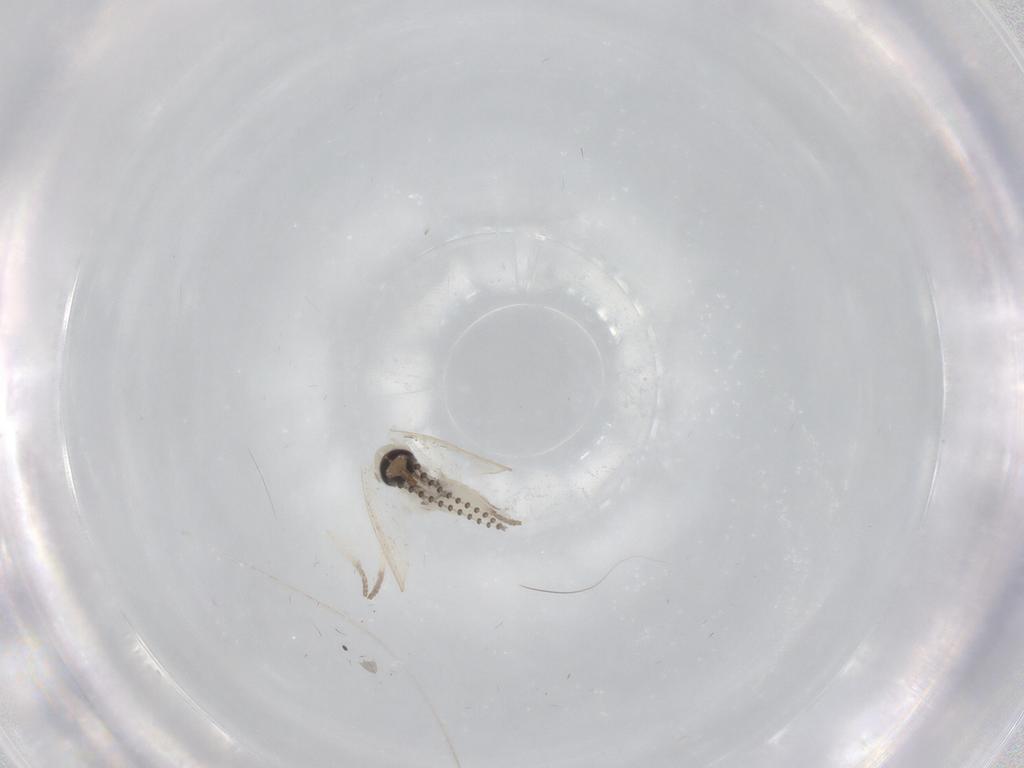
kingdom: Animalia
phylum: Arthropoda
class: Insecta
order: Diptera
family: Psychodidae
